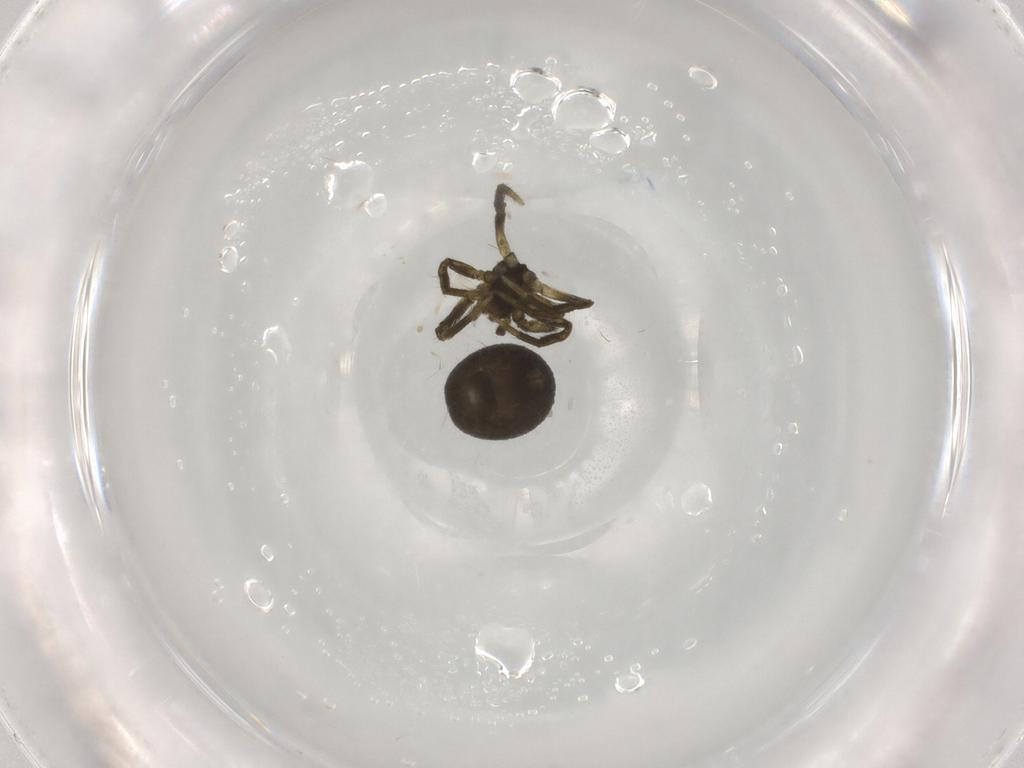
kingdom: Animalia
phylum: Arthropoda
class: Arachnida
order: Araneae
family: Theridiidae
